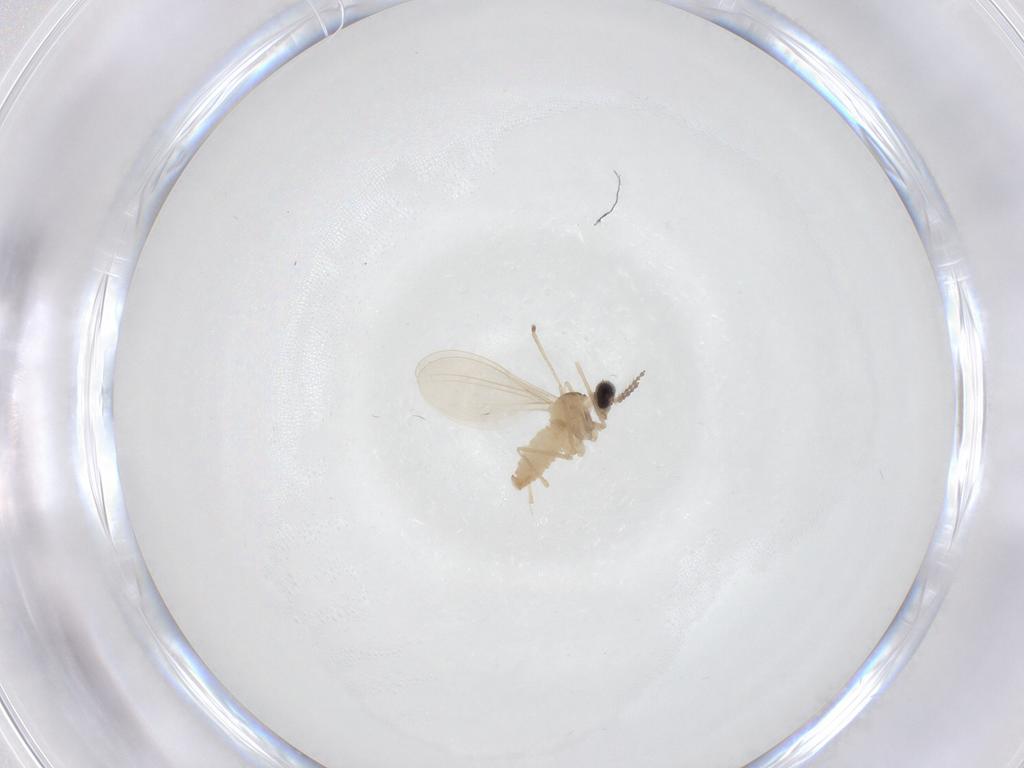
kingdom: Animalia
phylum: Arthropoda
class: Insecta
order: Diptera
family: Cecidomyiidae
